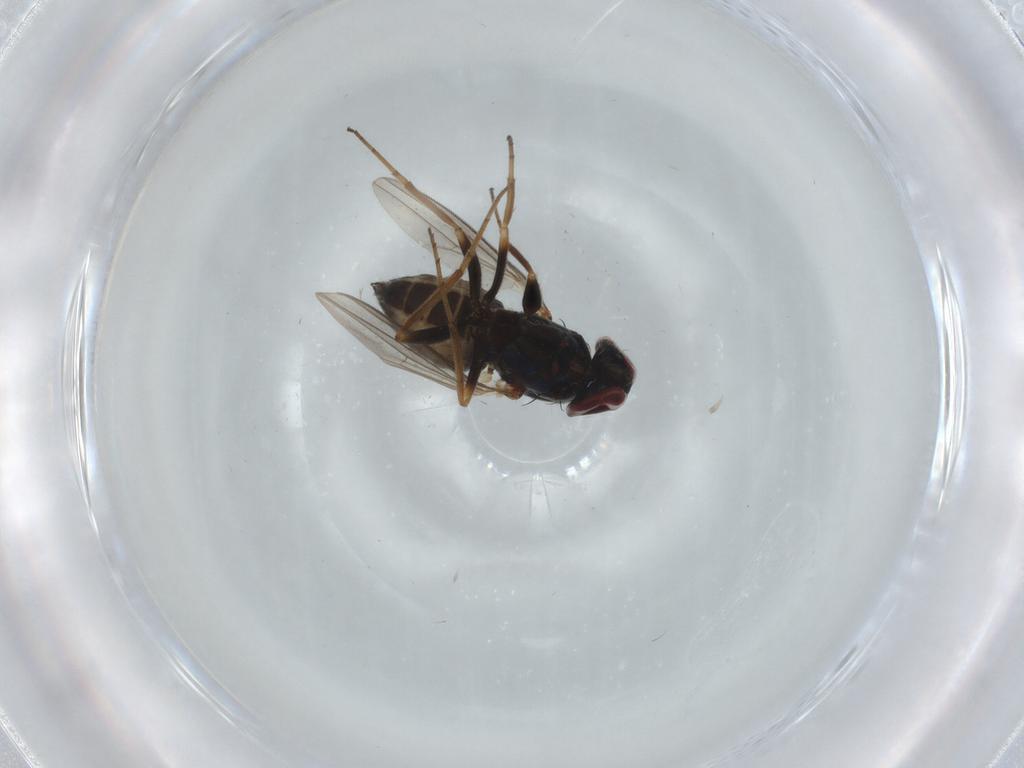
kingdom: Animalia
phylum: Arthropoda
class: Insecta
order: Diptera
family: Dolichopodidae
